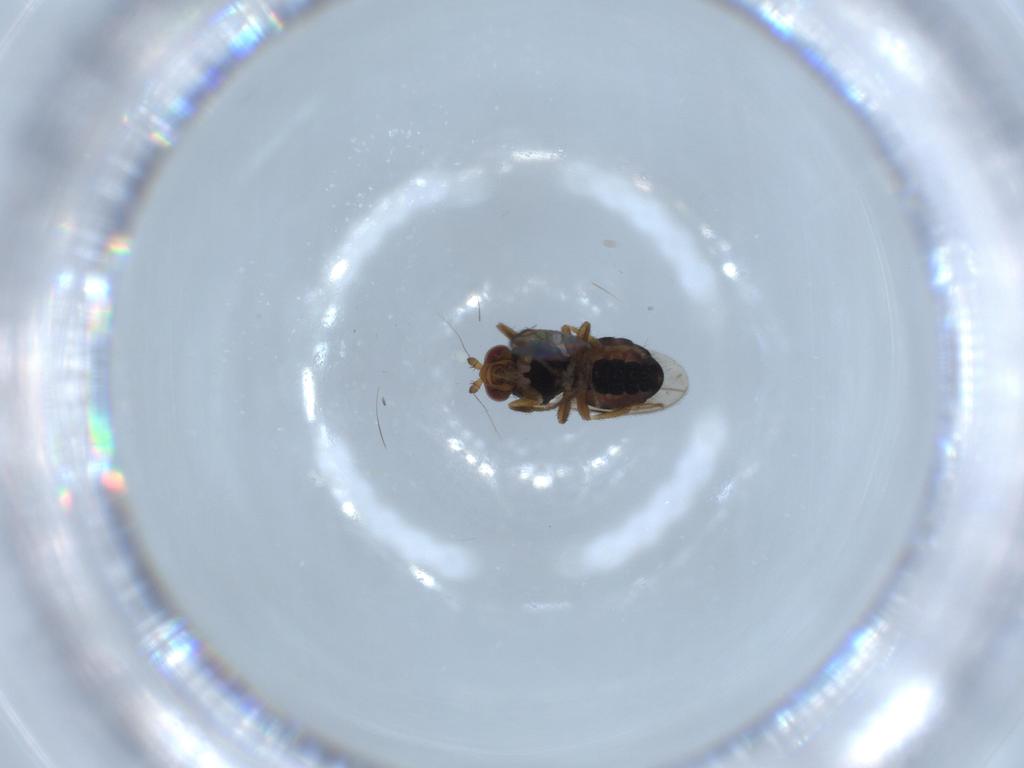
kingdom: Animalia
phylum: Arthropoda
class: Insecta
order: Diptera
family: Sphaeroceridae
